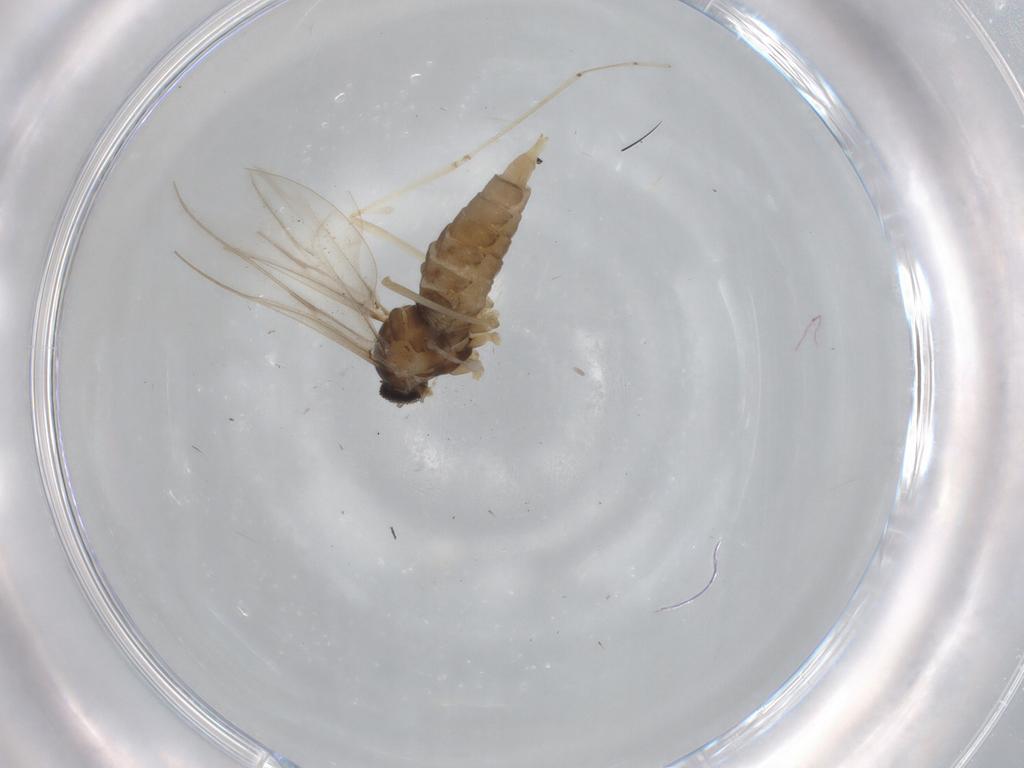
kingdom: Animalia
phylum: Arthropoda
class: Insecta
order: Diptera
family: Cecidomyiidae
